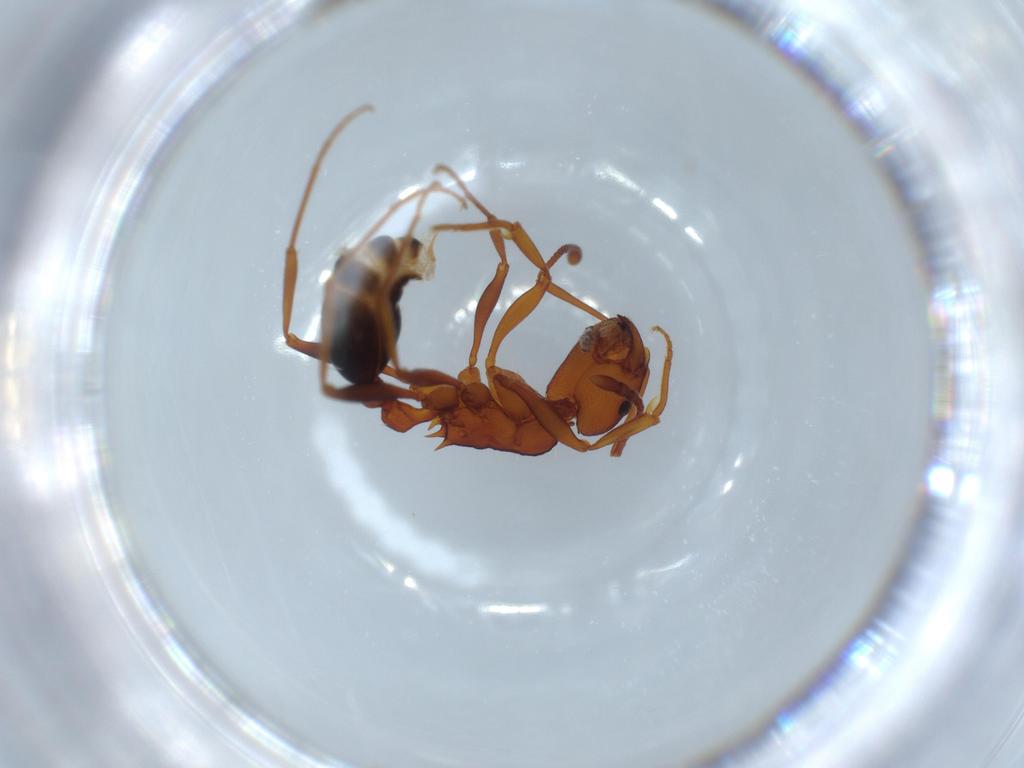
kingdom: Animalia
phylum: Arthropoda
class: Insecta
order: Hymenoptera
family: Formicidae
